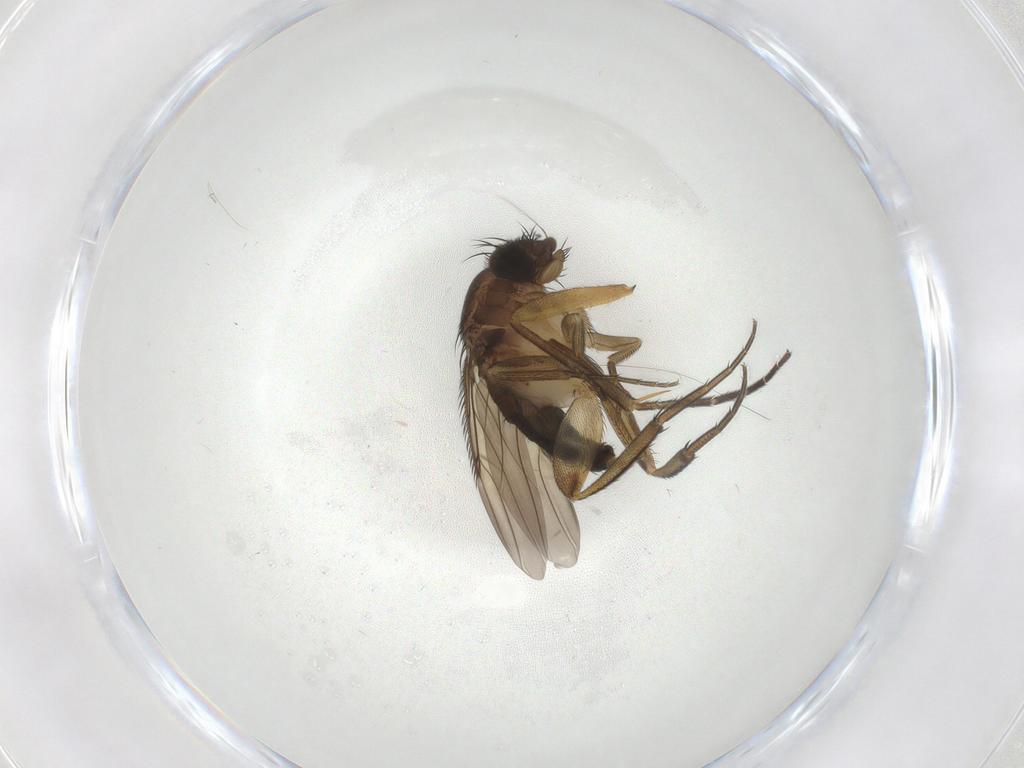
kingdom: Animalia
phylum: Arthropoda
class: Insecta
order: Diptera
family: Phoridae
